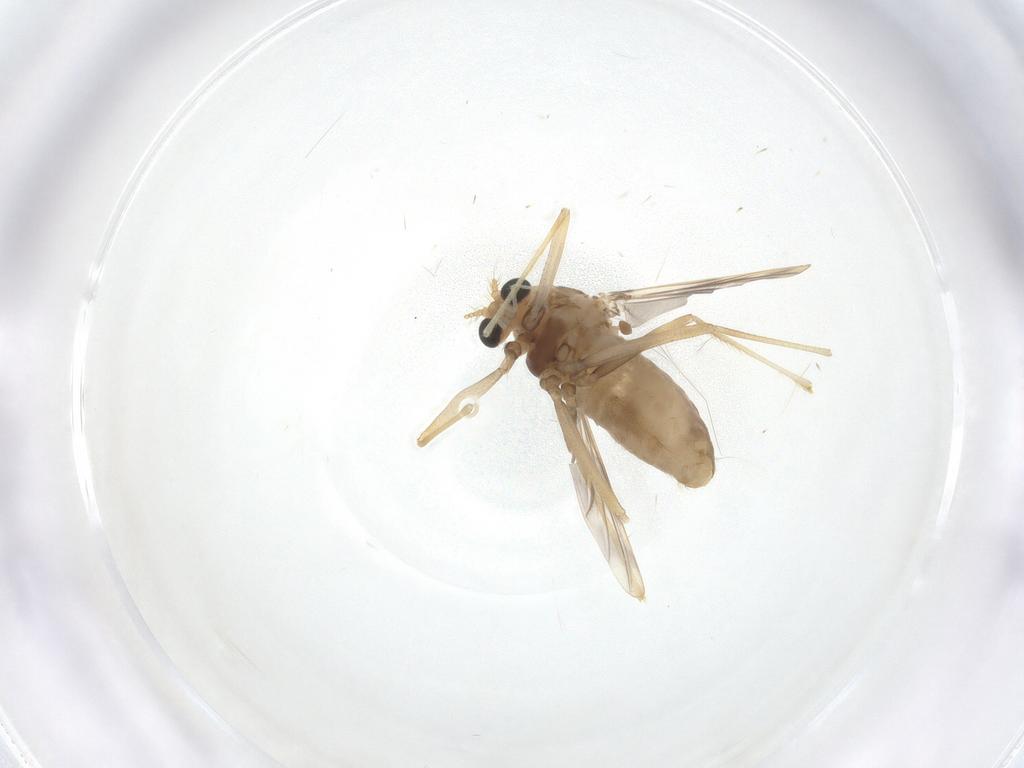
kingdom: Animalia
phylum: Arthropoda
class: Insecta
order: Diptera
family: Chironomidae
